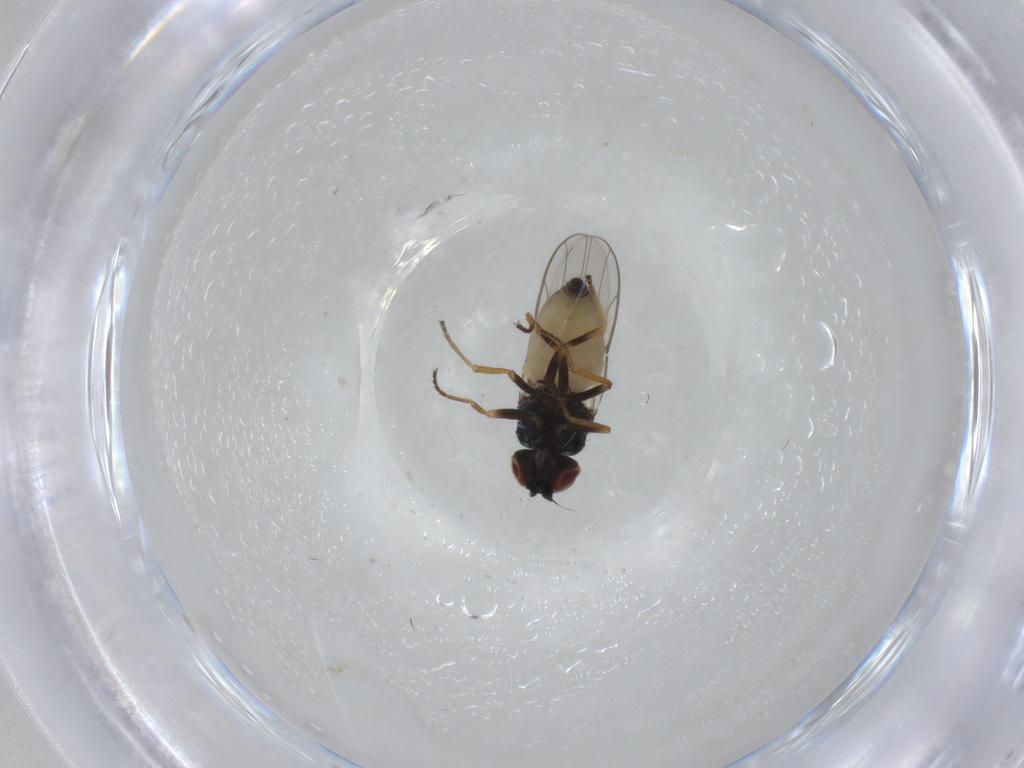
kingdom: Animalia
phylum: Arthropoda
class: Insecta
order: Diptera
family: Chloropidae
